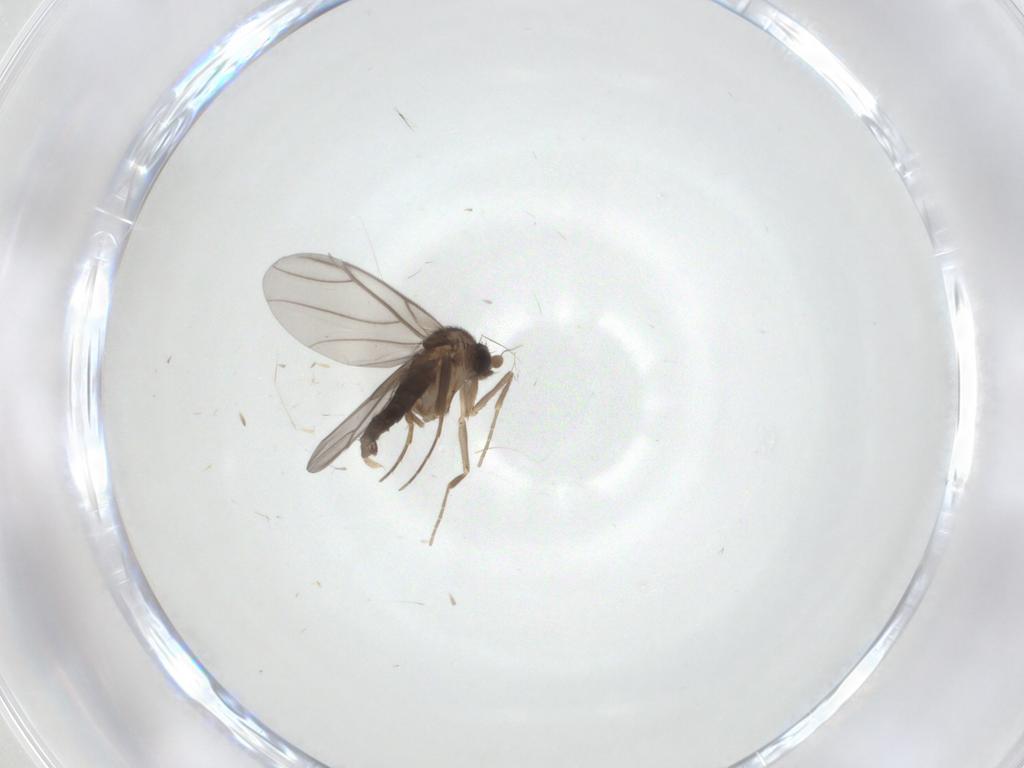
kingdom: Animalia
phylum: Arthropoda
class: Insecta
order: Diptera
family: Phoridae
